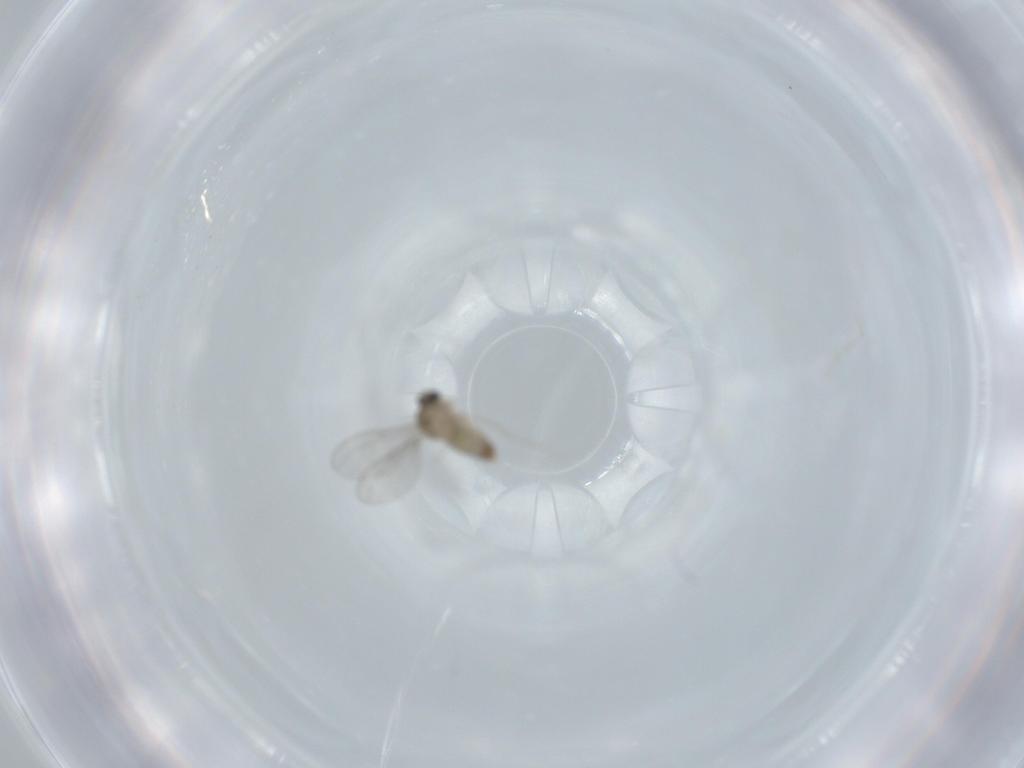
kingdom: Animalia
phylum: Arthropoda
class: Insecta
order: Diptera
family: Cecidomyiidae
